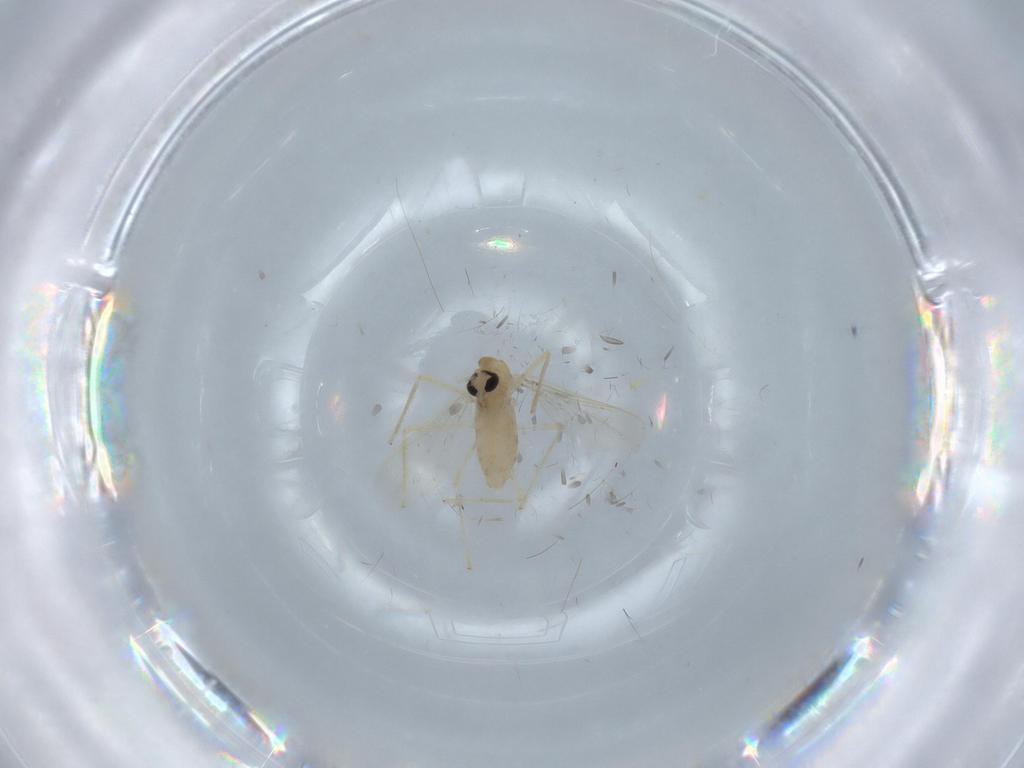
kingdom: Animalia
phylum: Arthropoda
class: Insecta
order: Diptera
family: Chironomidae
